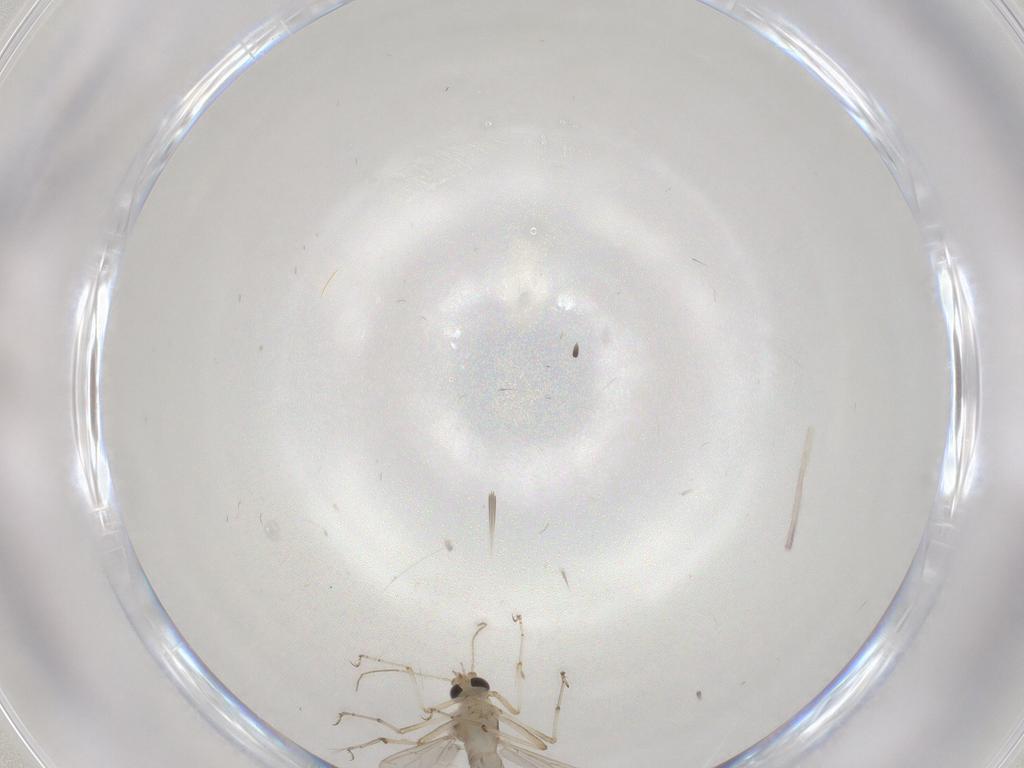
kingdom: Animalia
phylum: Arthropoda
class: Insecta
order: Diptera
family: Ceratopogonidae
